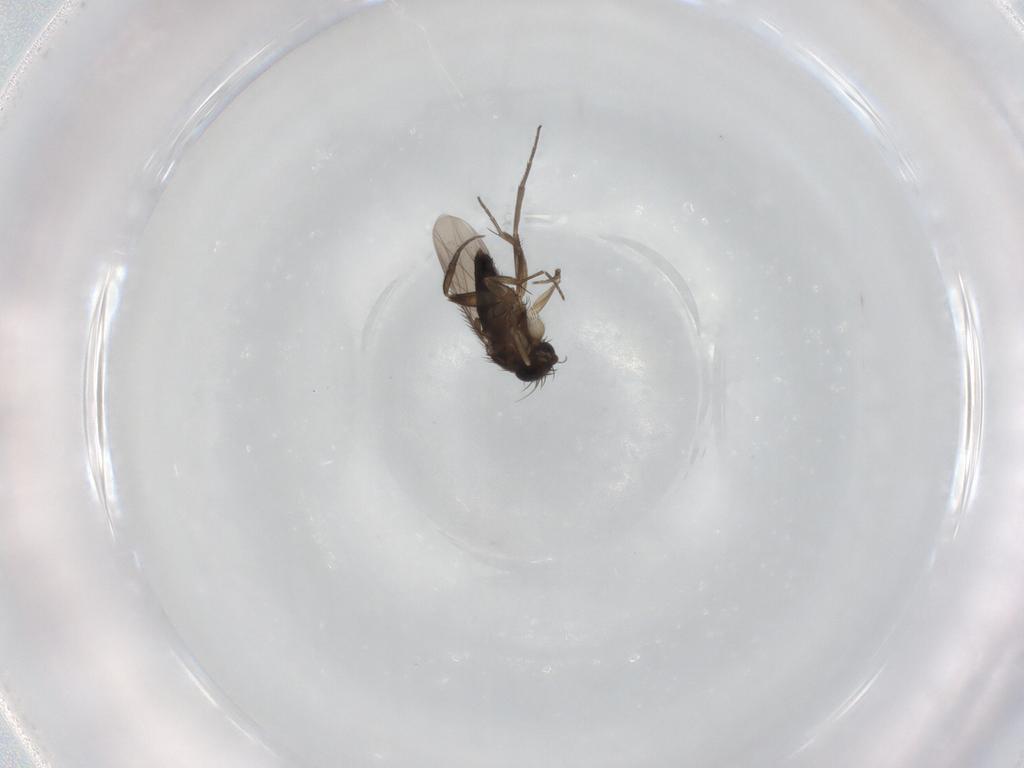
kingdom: Animalia
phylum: Arthropoda
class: Insecta
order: Diptera
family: Phoridae
